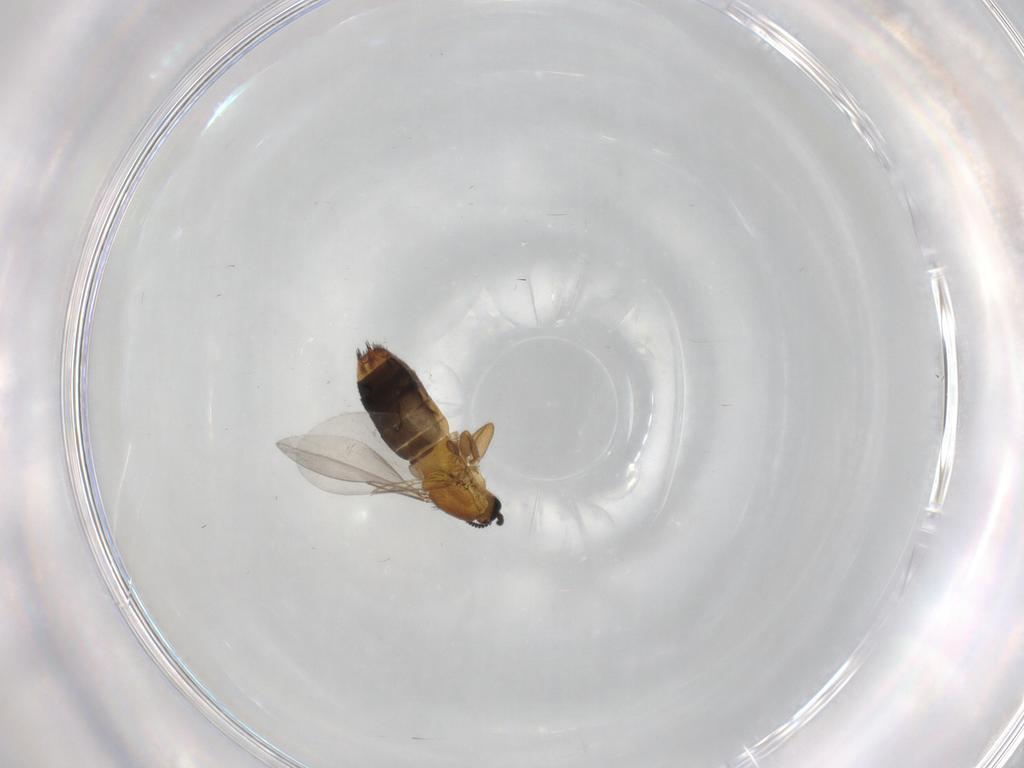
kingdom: Animalia
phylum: Arthropoda
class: Insecta
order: Diptera
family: Scatopsidae
